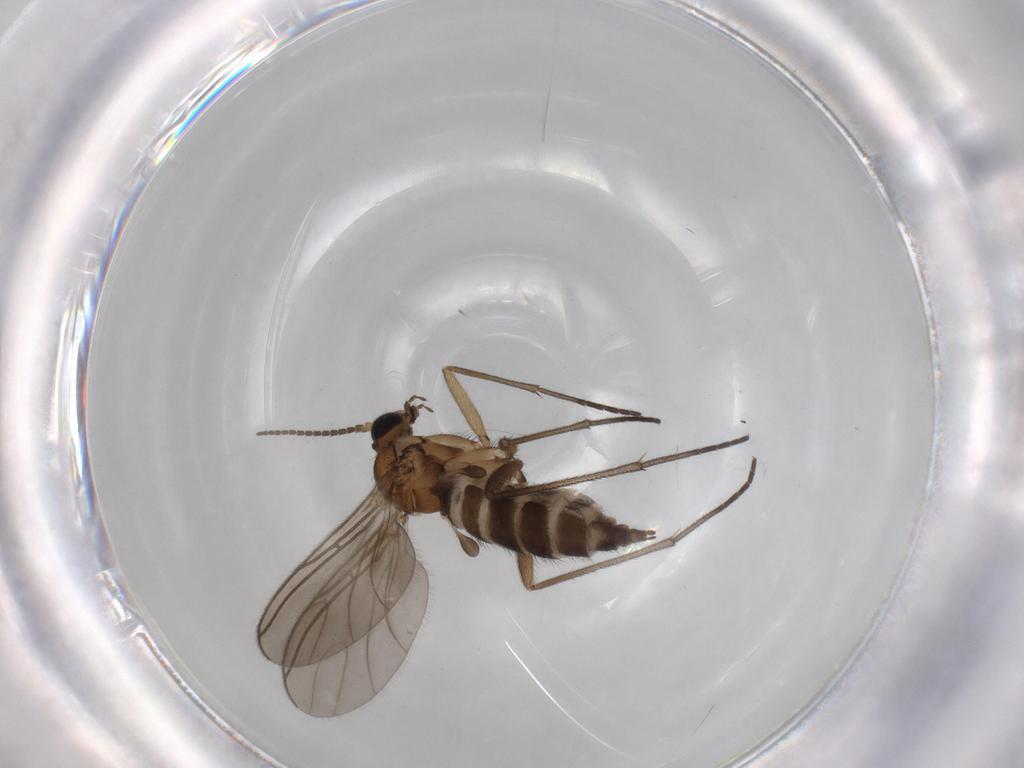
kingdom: Animalia
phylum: Arthropoda
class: Insecta
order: Diptera
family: Sciaridae
